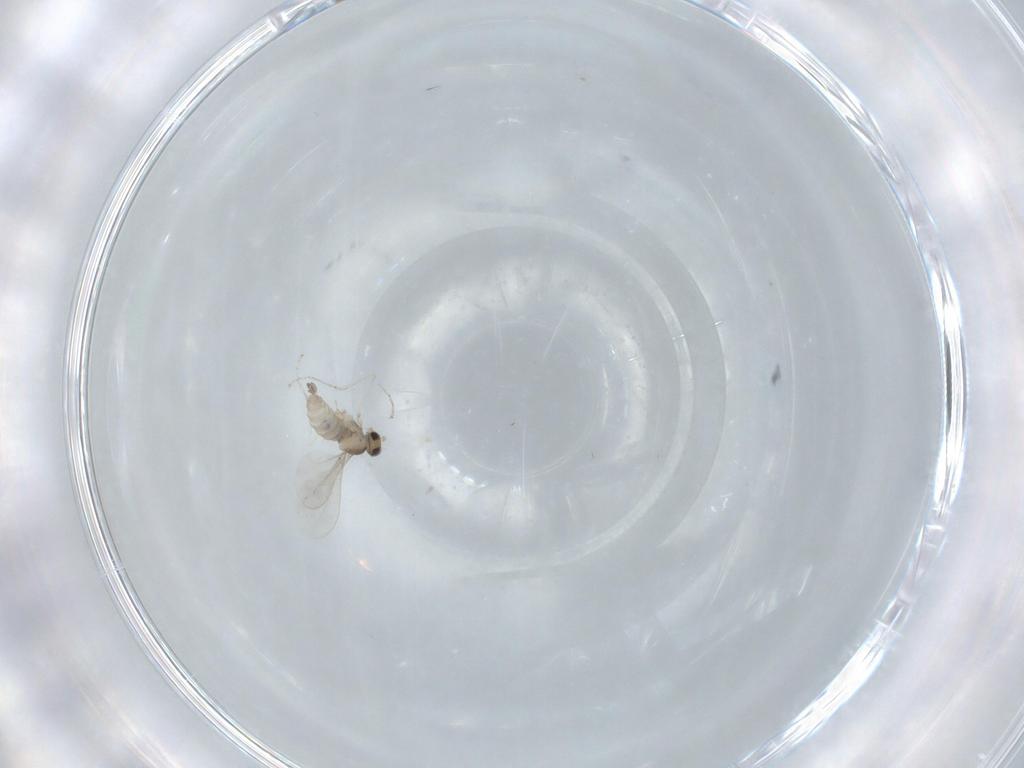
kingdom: Animalia
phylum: Arthropoda
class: Insecta
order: Diptera
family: Cecidomyiidae
